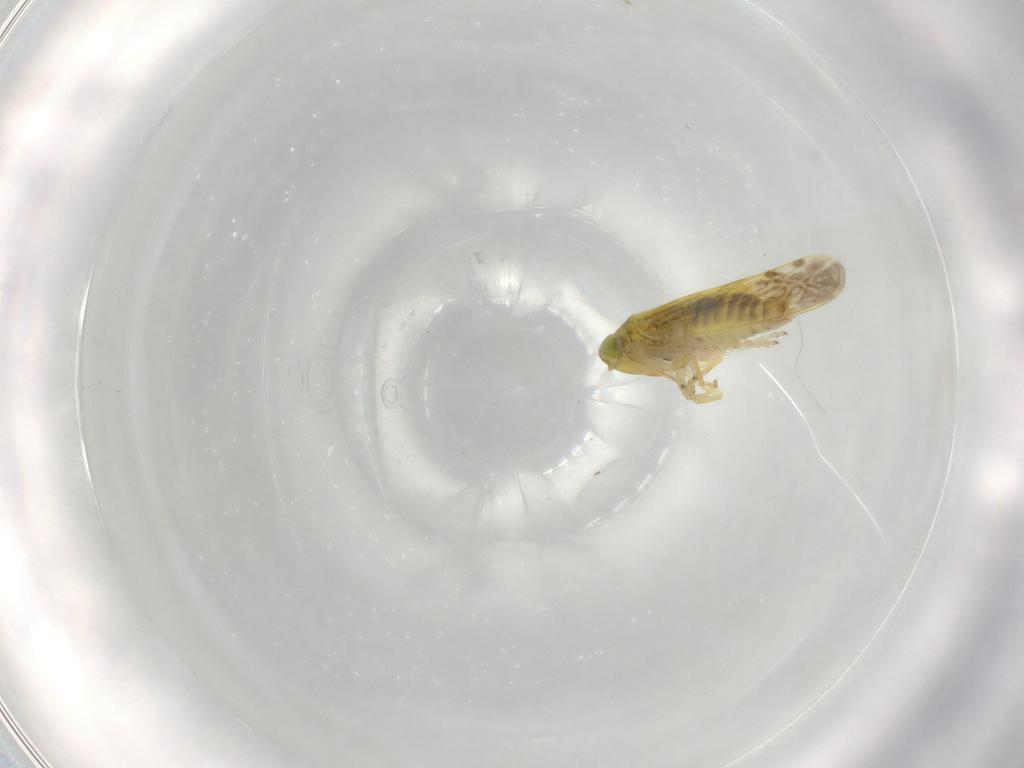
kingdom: Animalia
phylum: Arthropoda
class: Insecta
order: Hemiptera
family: Cicadellidae
